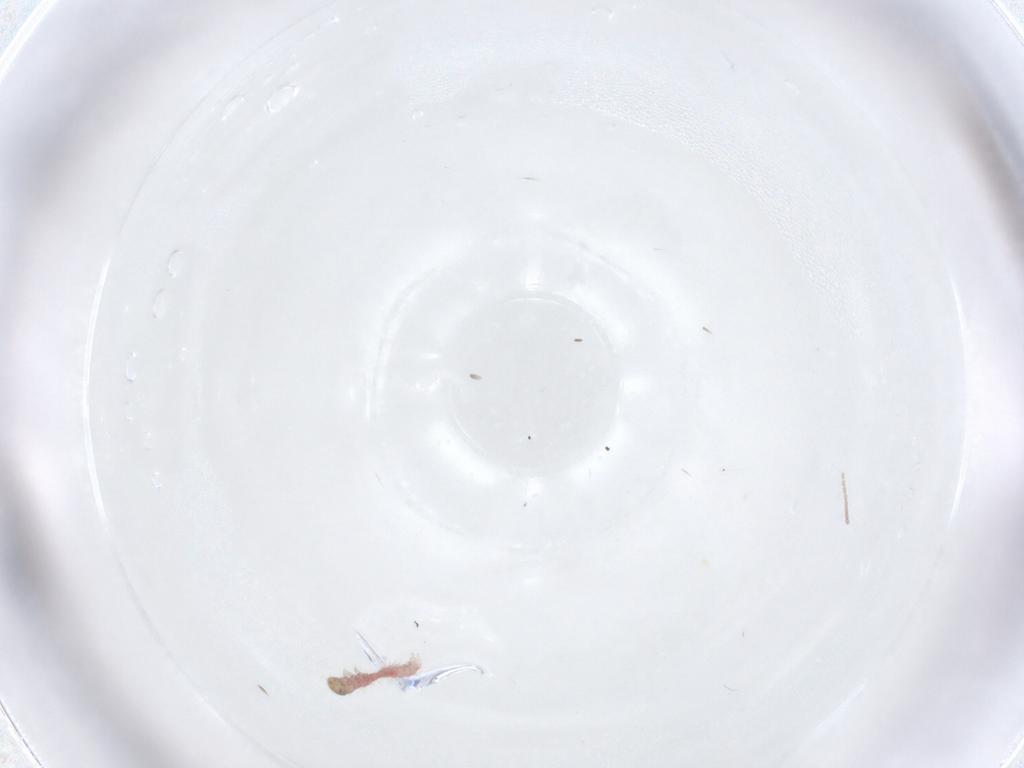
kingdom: Animalia
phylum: Arthropoda
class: Insecta
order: Lepidoptera
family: Xyloryctidae
